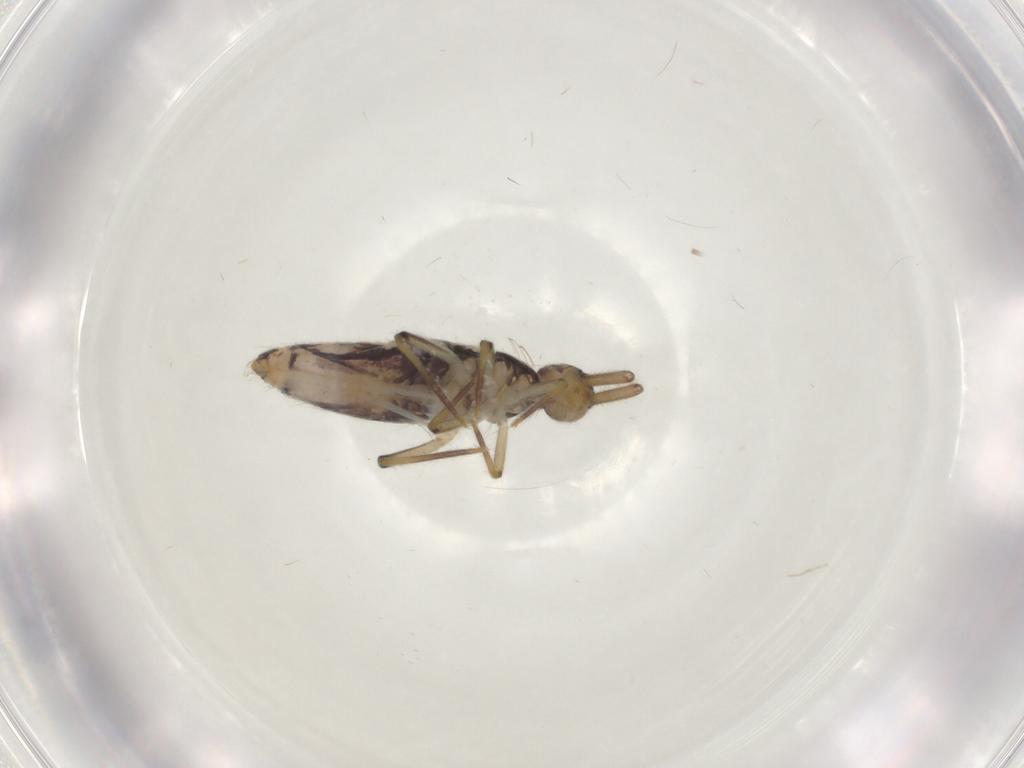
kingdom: Animalia
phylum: Arthropoda
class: Collembola
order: Entomobryomorpha
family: Entomobryidae
